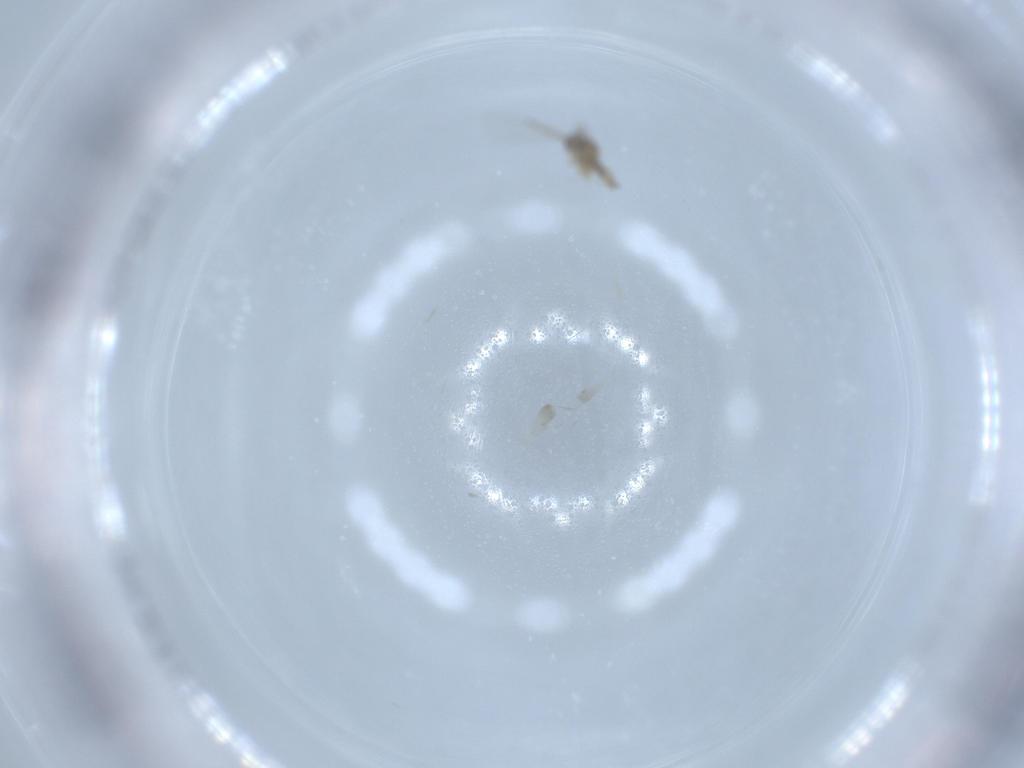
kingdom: Animalia
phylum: Arthropoda
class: Insecta
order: Diptera
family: Cecidomyiidae
